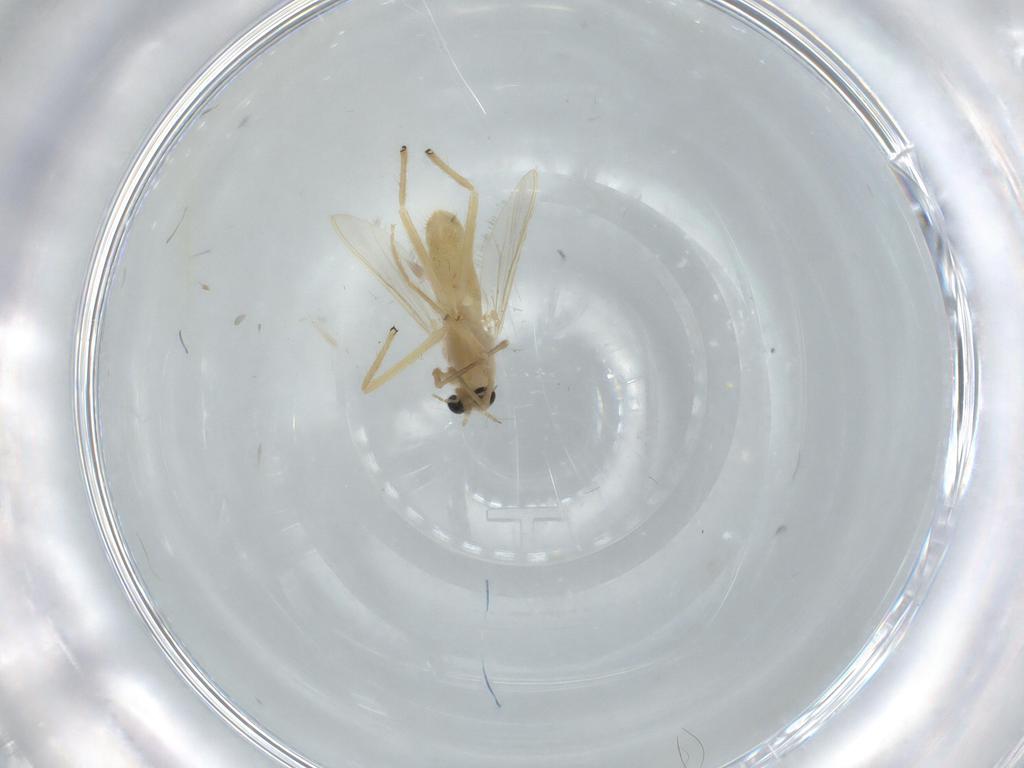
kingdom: Animalia
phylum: Arthropoda
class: Insecta
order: Diptera
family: Chironomidae
